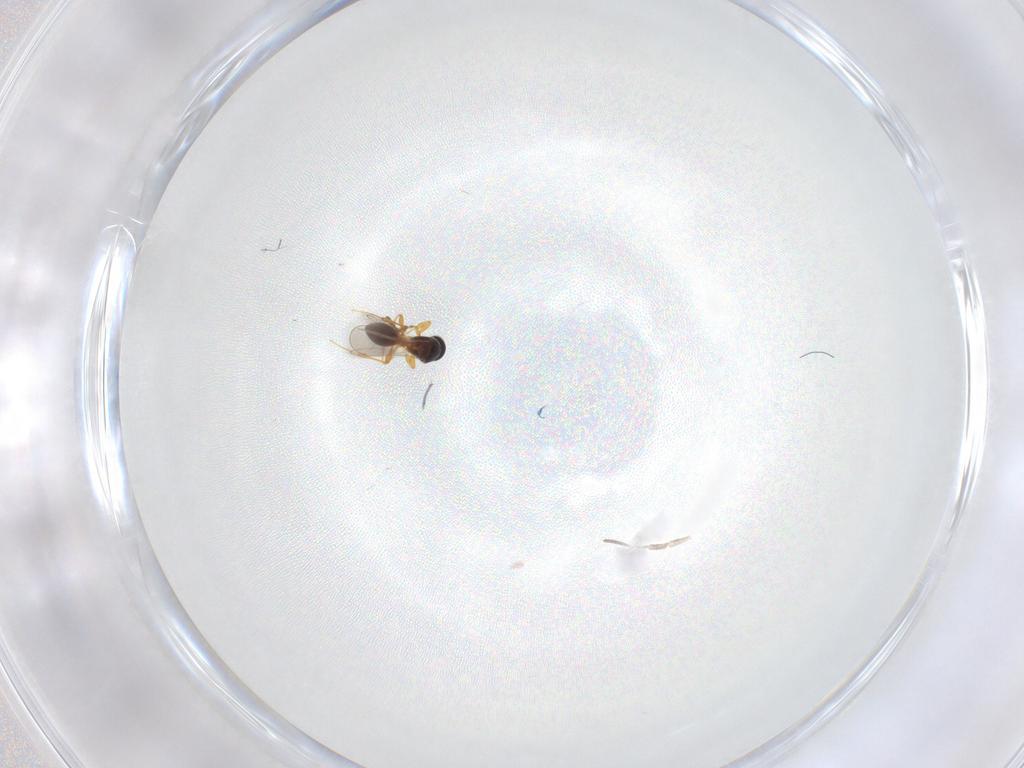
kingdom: Animalia
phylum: Arthropoda
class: Insecta
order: Hymenoptera
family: Platygastridae
